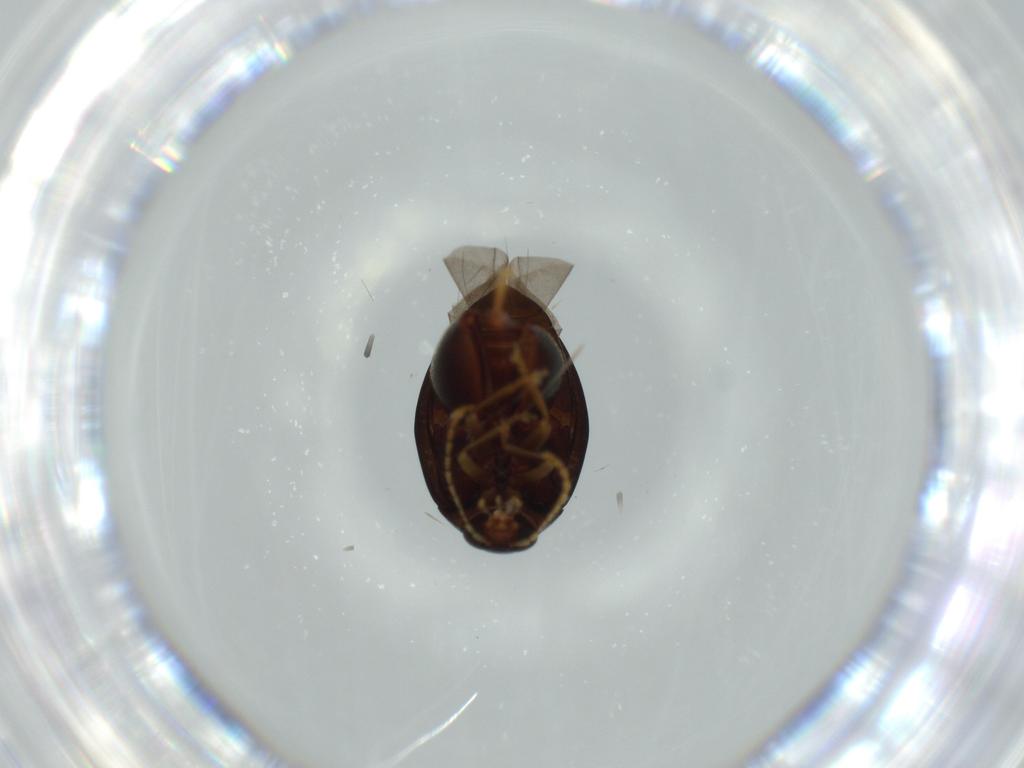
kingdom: Animalia
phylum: Arthropoda
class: Insecta
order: Coleoptera
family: Chrysomelidae
